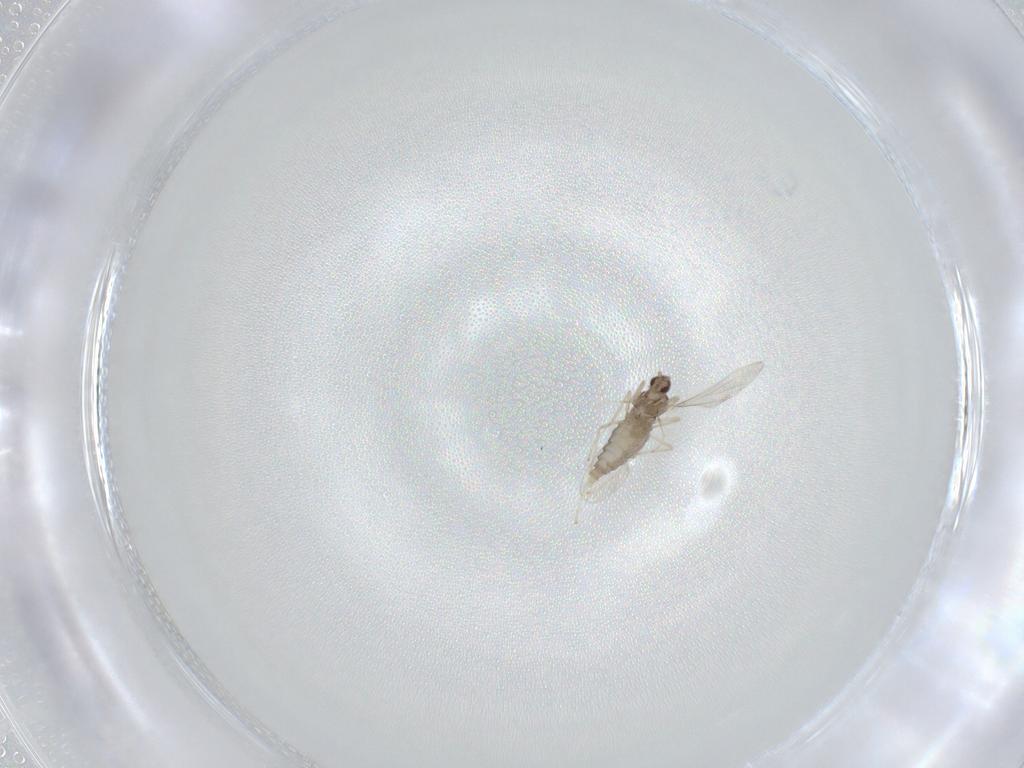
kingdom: Animalia
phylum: Arthropoda
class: Insecta
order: Diptera
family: Cecidomyiidae
